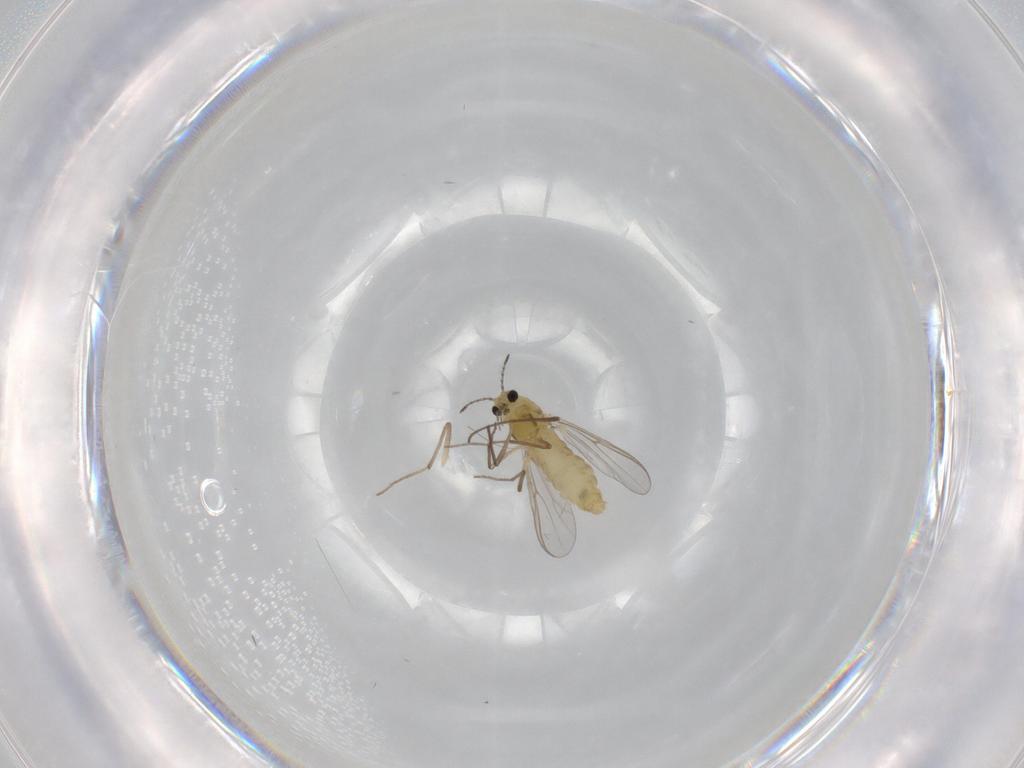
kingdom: Animalia
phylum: Arthropoda
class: Insecta
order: Diptera
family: Chironomidae
